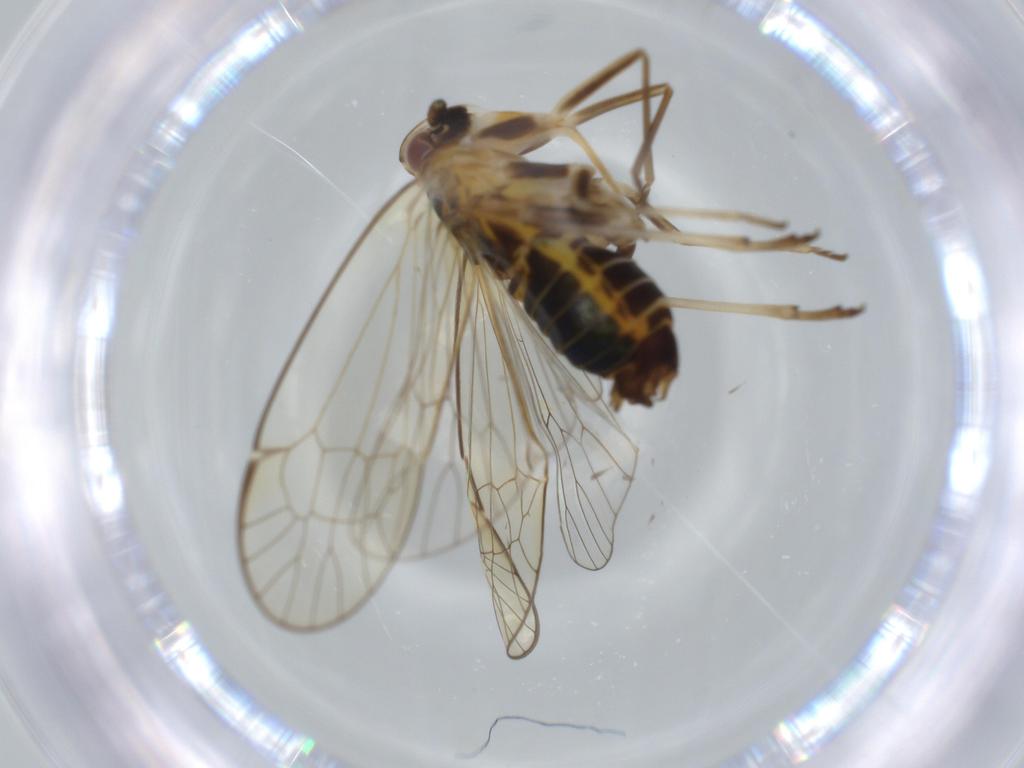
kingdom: Animalia
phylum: Arthropoda
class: Insecta
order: Hemiptera
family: Kinnaridae
